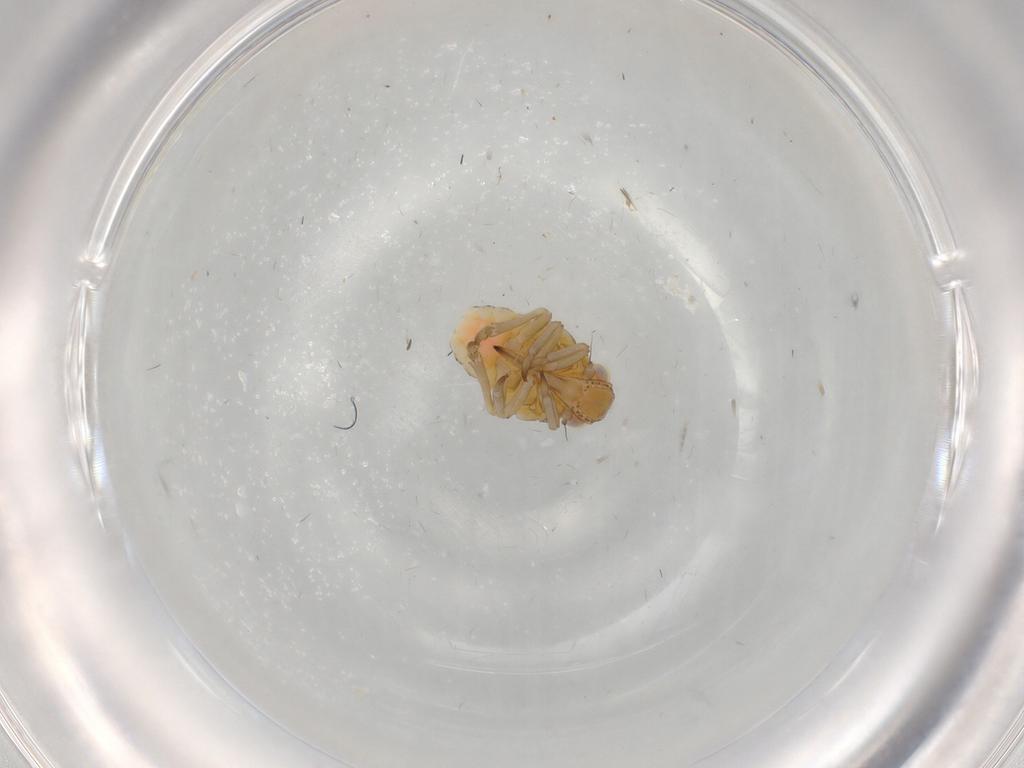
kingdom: Animalia
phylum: Arthropoda
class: Insecta
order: Hemiptera
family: Tropiduchidae
